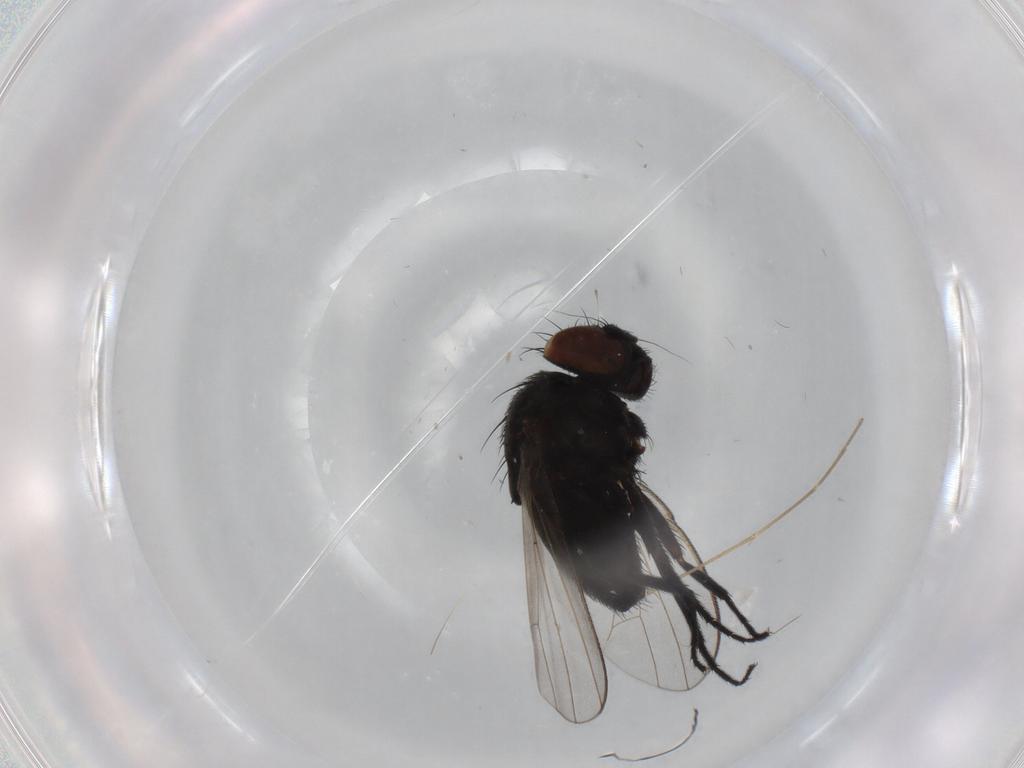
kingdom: Animalia
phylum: Arthropoda
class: Insecta
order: Diptera
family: Milichiidae
